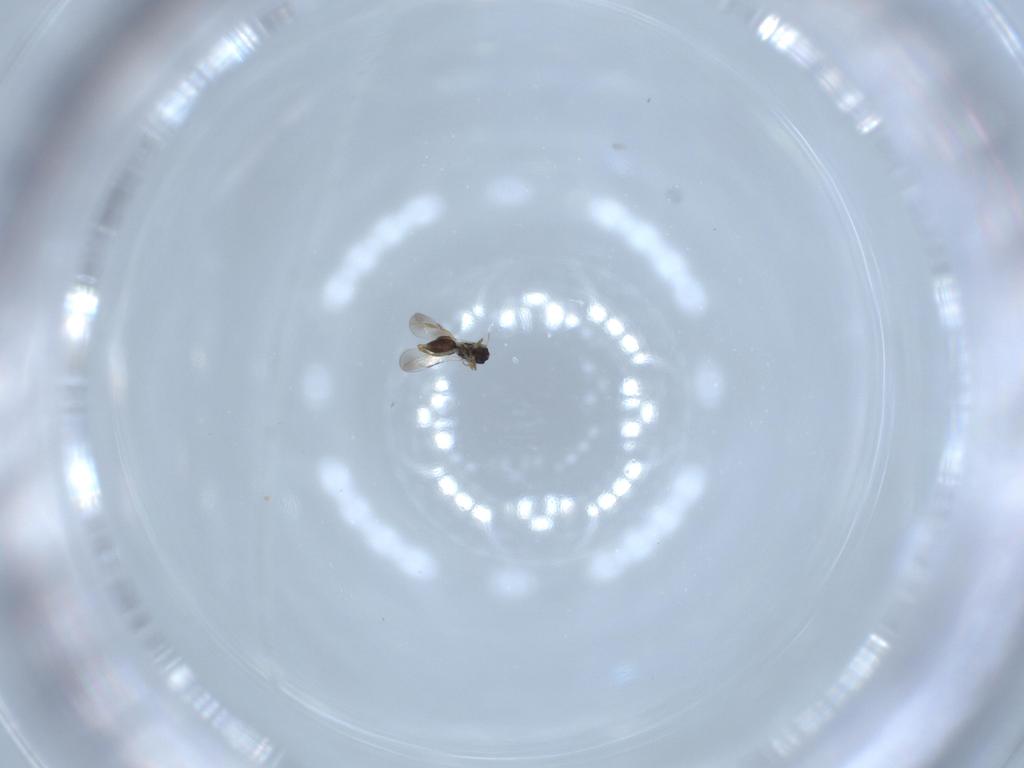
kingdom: Animalia
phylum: Arthropoda
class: Insecta
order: Hymenoptera
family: Ceraphronidae
